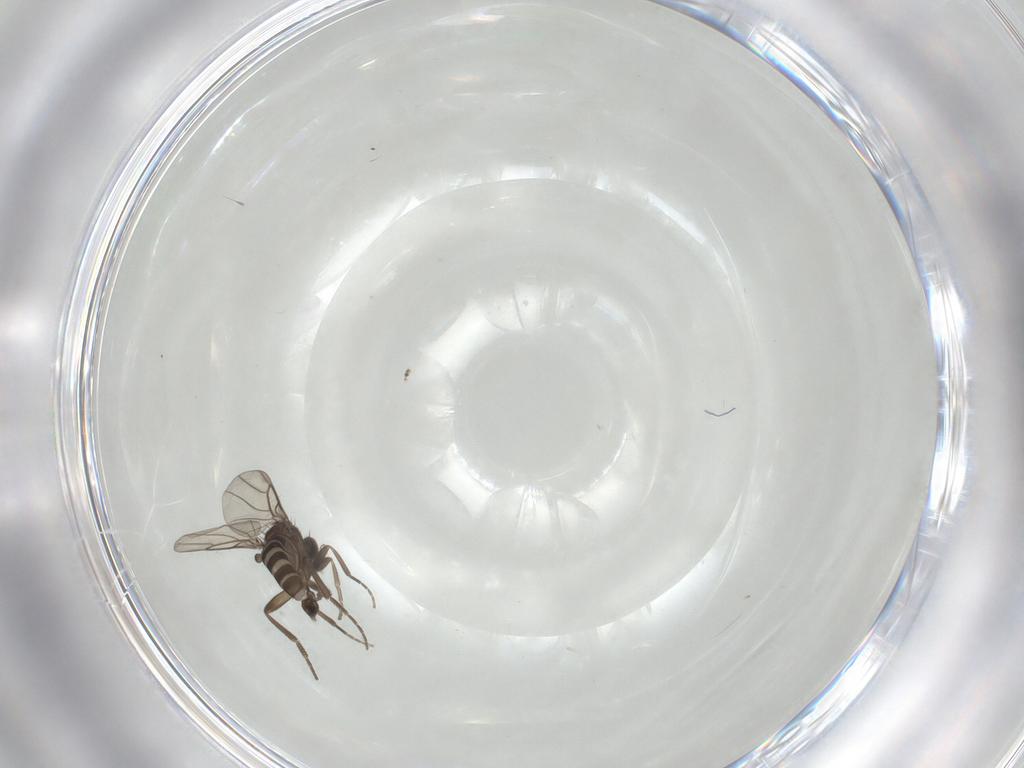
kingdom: Animalia
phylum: Arthropoda
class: Insecta
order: Diptera
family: Phoridae
